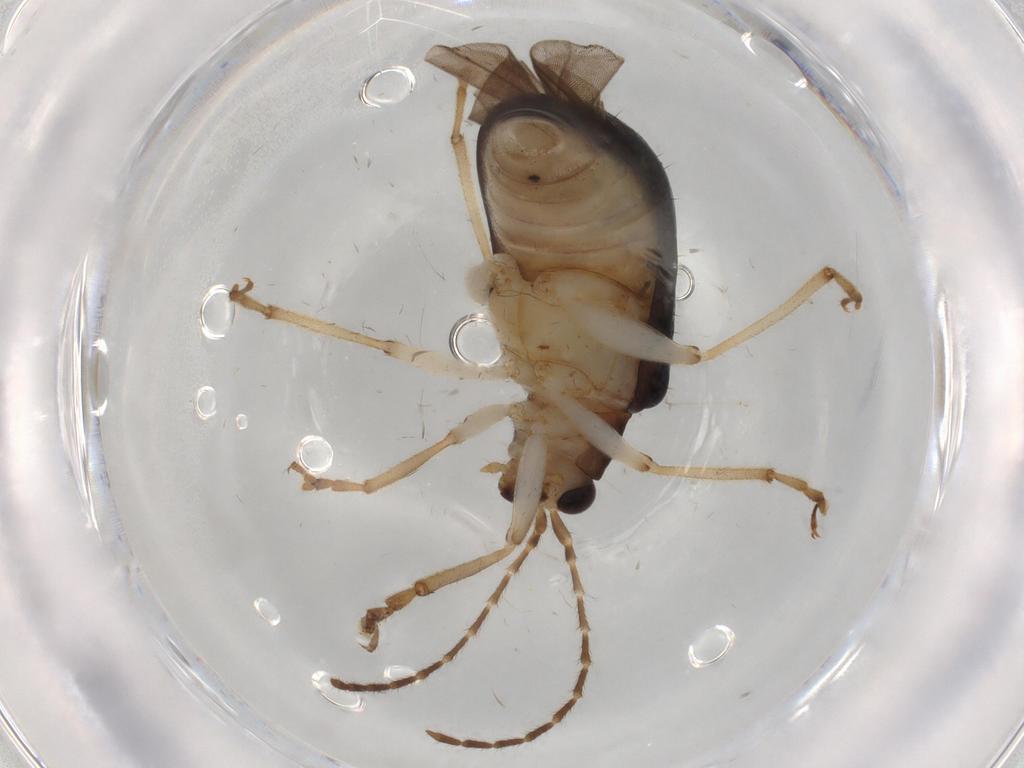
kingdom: Animalia
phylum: Arthropoda
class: Insecta
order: Coleoptera
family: Chrysomelidae
